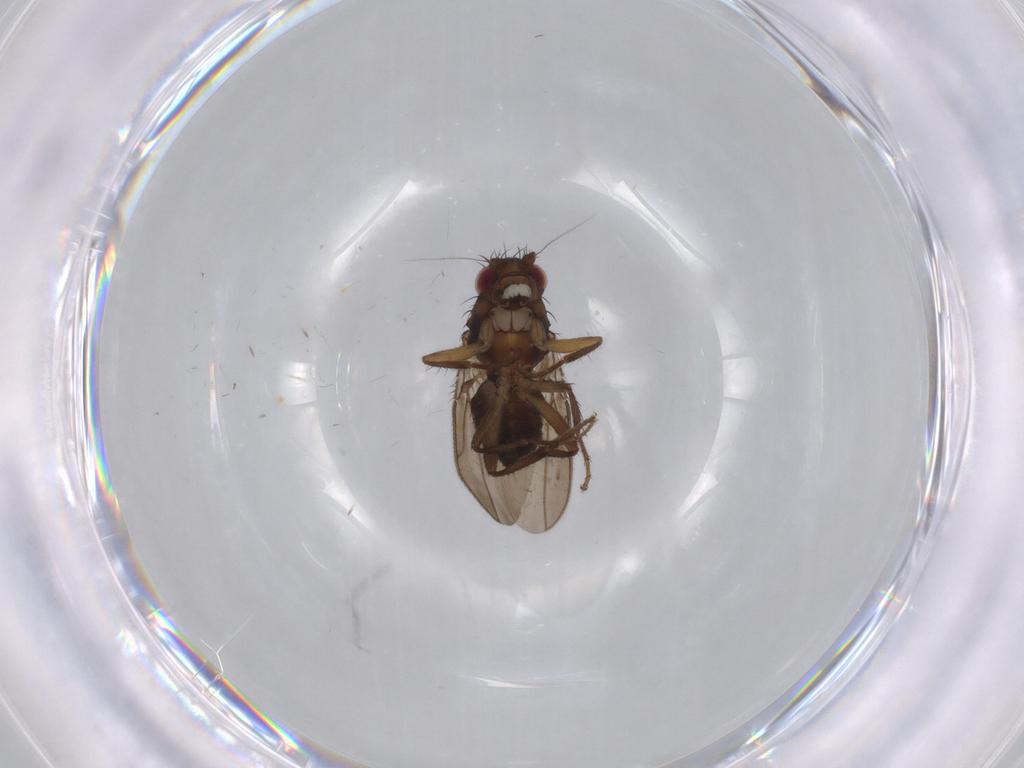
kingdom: Animalia
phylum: Arthropoda
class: Insecta
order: Diptera
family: Sphaeroceridae
